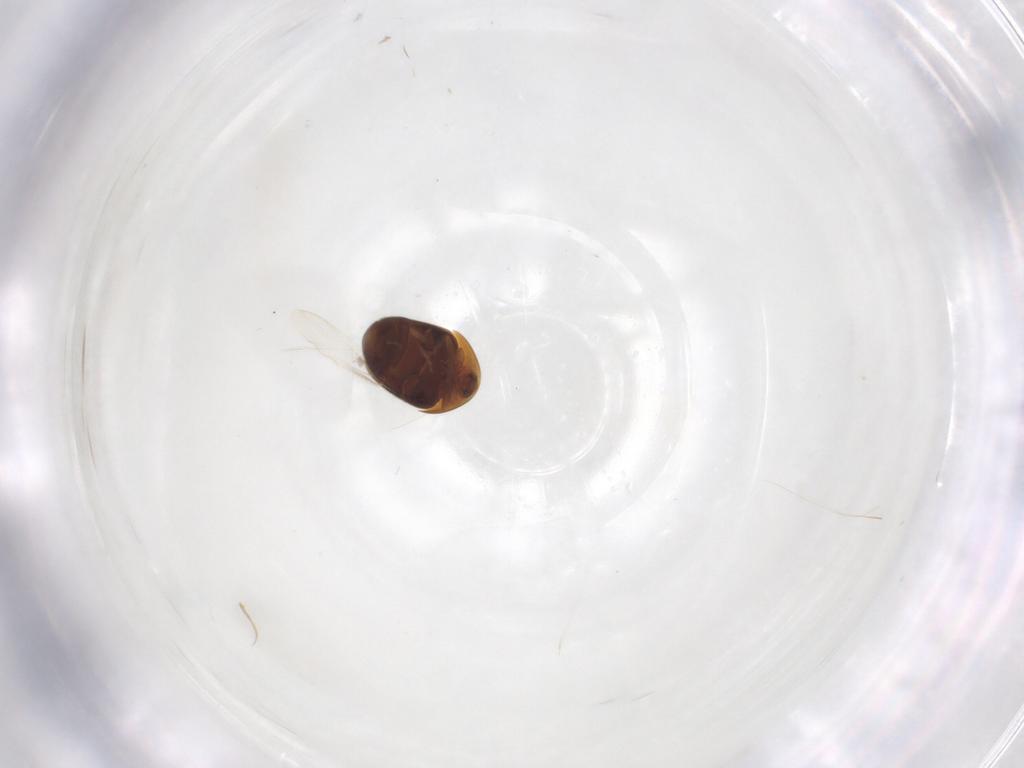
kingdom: Animalia
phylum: Arthropoda
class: Insecta
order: Coleoptera
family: Corylophidae
